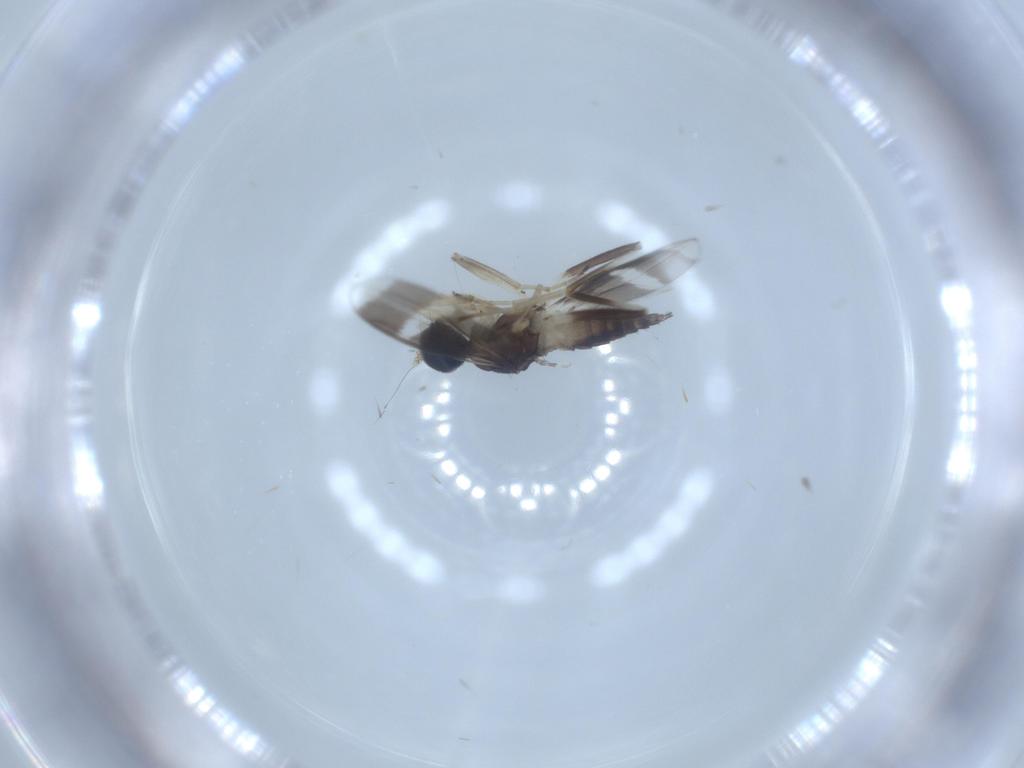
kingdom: Animalia
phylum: Arthropoda
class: Insecta
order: Diptera
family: Hybotidae
